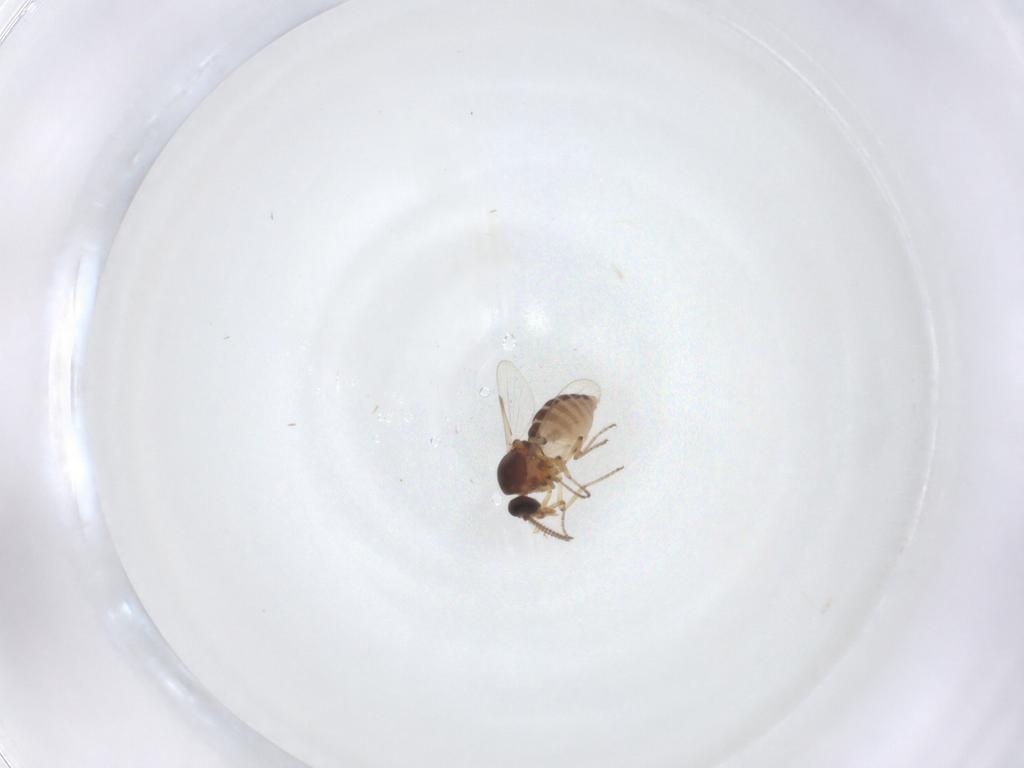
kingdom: Animalia
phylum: Arthropoda
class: Insecta
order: Diptera
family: Ceratopogonidae
